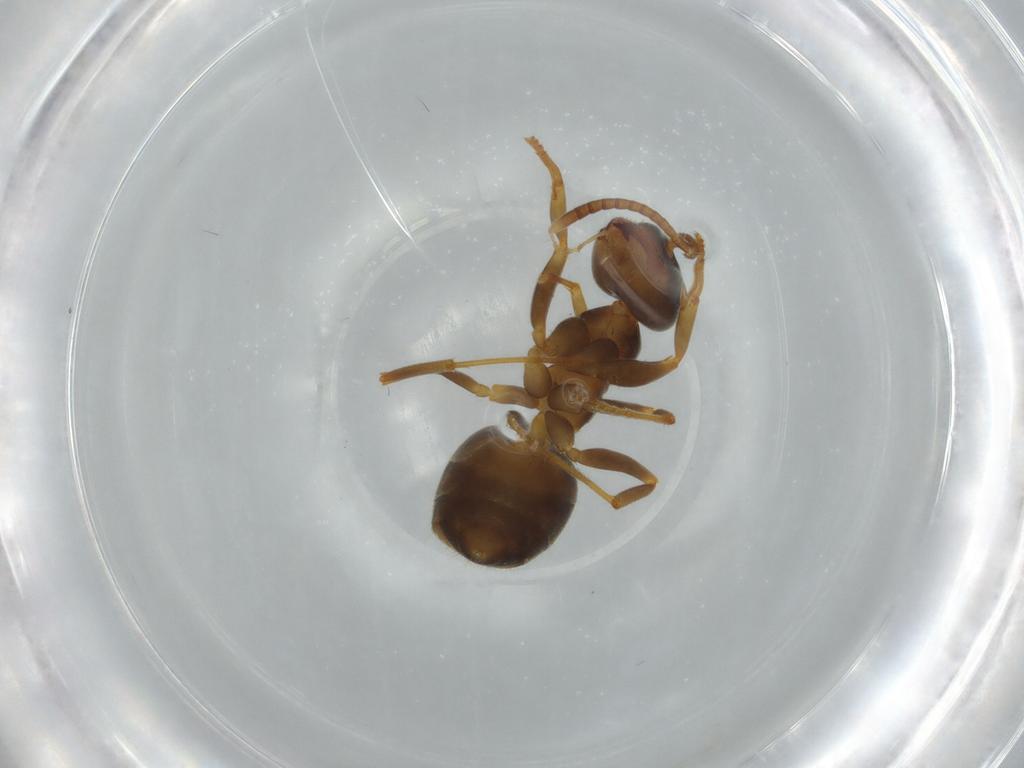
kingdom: Animalia
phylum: Arthropoda
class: Insecta
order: Hymenoptera
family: Formicidae
